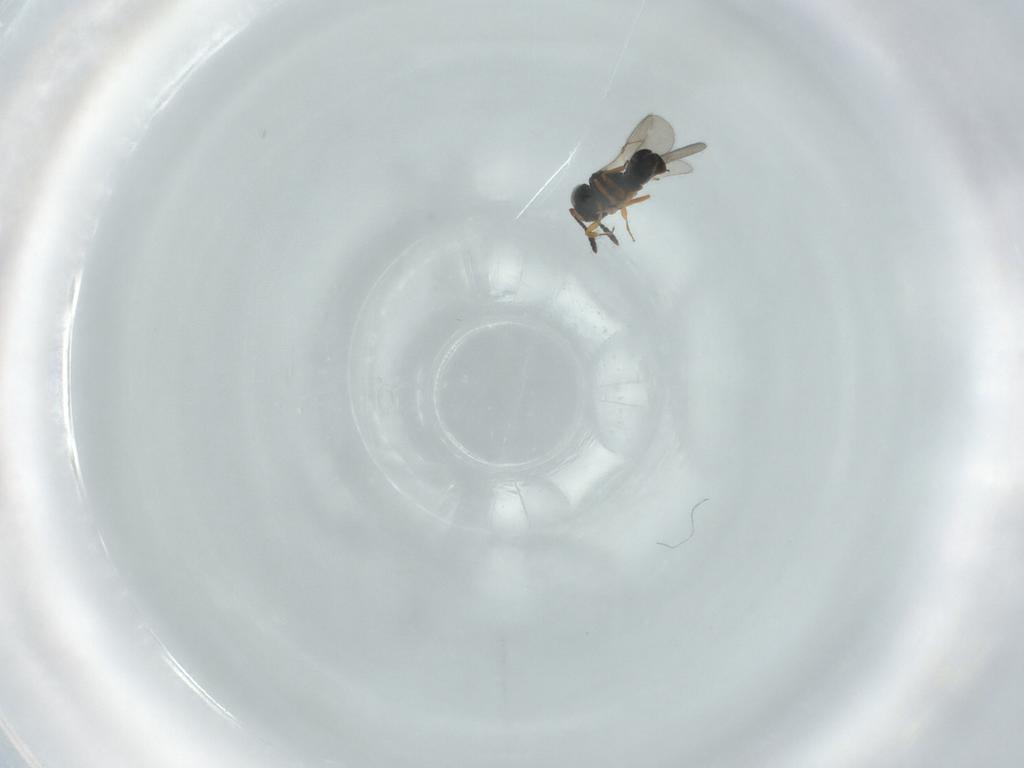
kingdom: Animalia
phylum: Arthropoda
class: Insecta
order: Hymenoptera
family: Scelionidae
